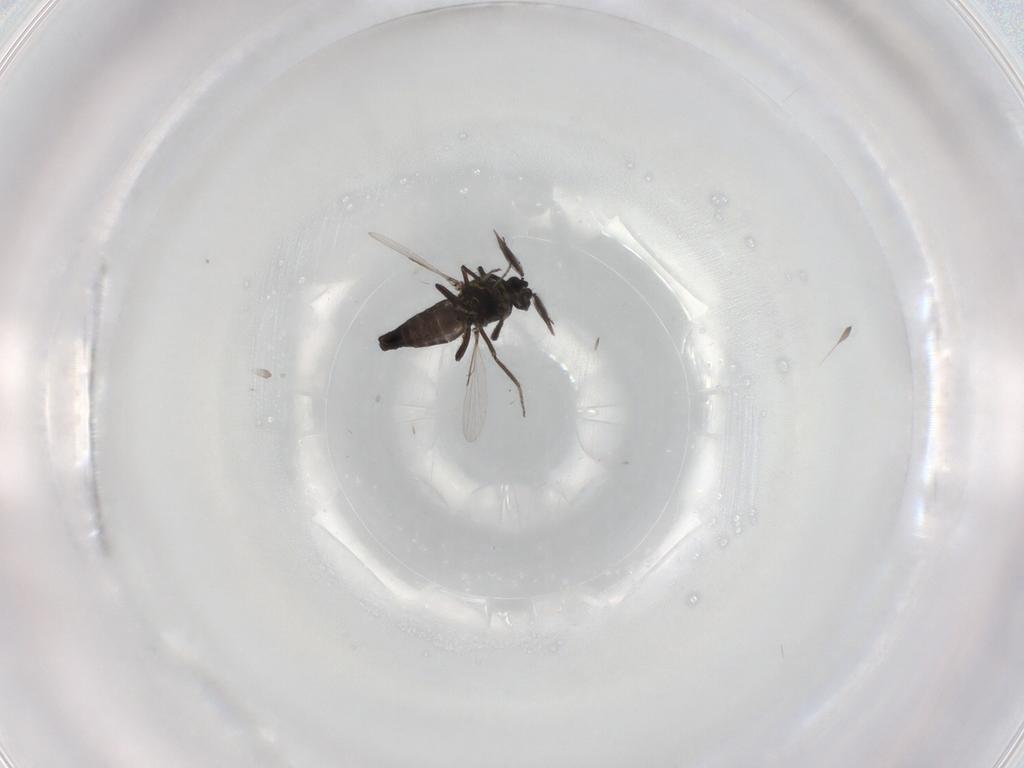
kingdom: Animalia
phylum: Arthropoda
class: Insecta
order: Diptera
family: Ceratopogonidae
